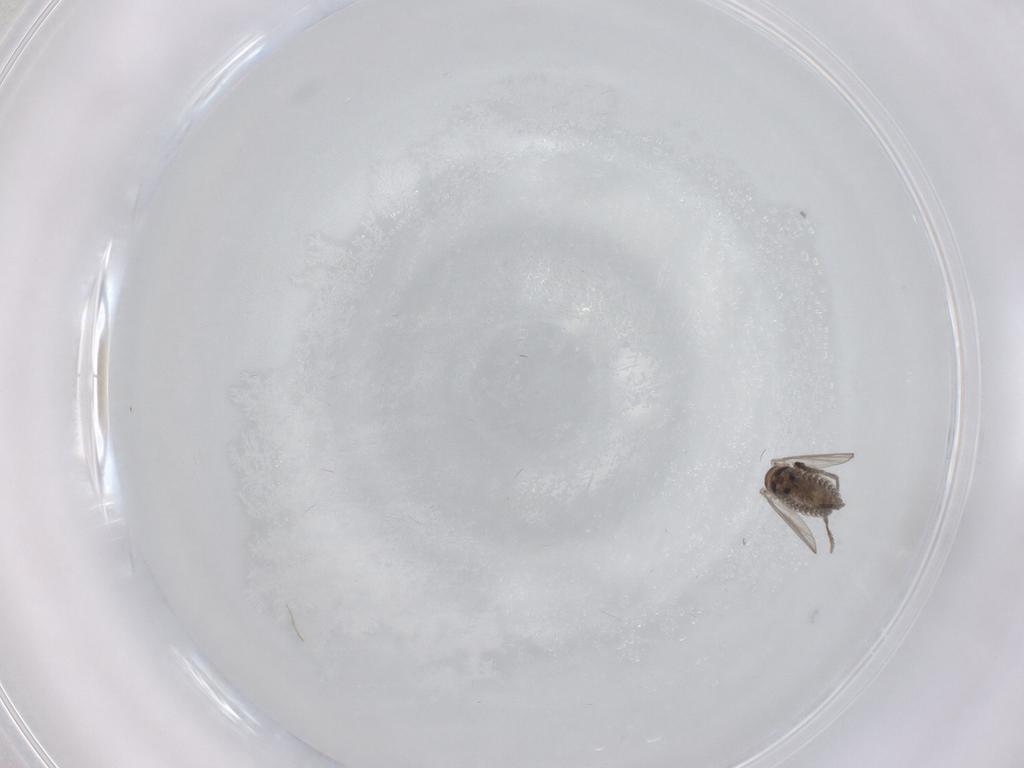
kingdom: Animalia
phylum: Arthropoda
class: Insecta
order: Diptera
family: Psychodidae
